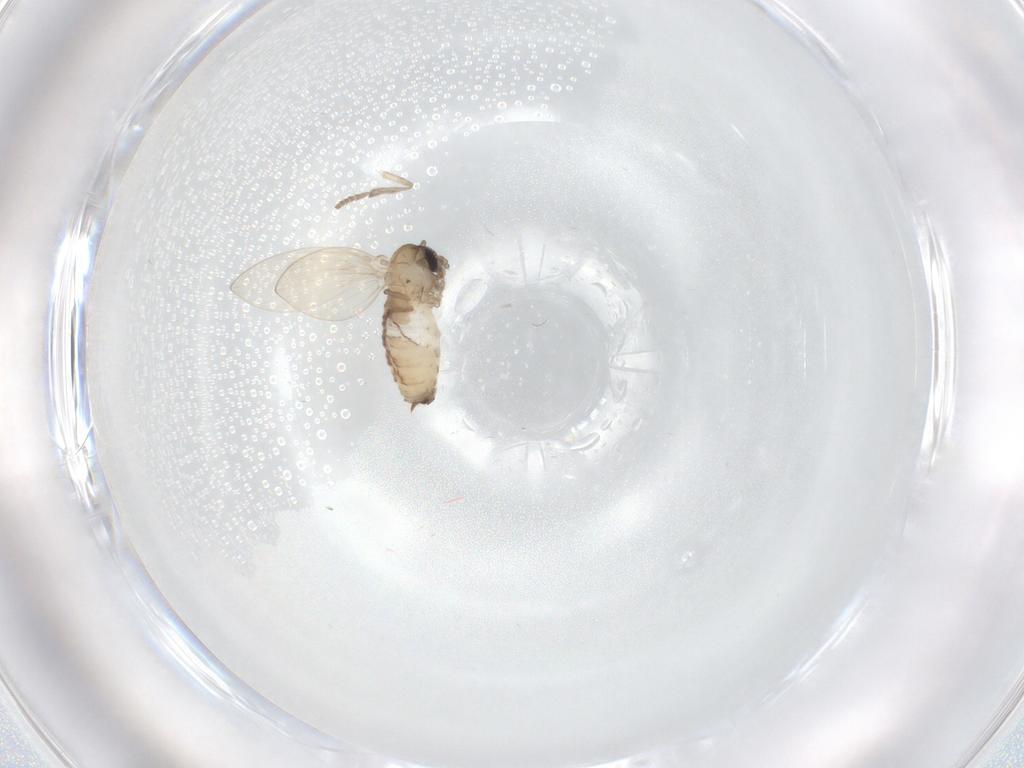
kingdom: Animalia
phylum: Arthropoda
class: Insecta
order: Diptera
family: Psychodidae
